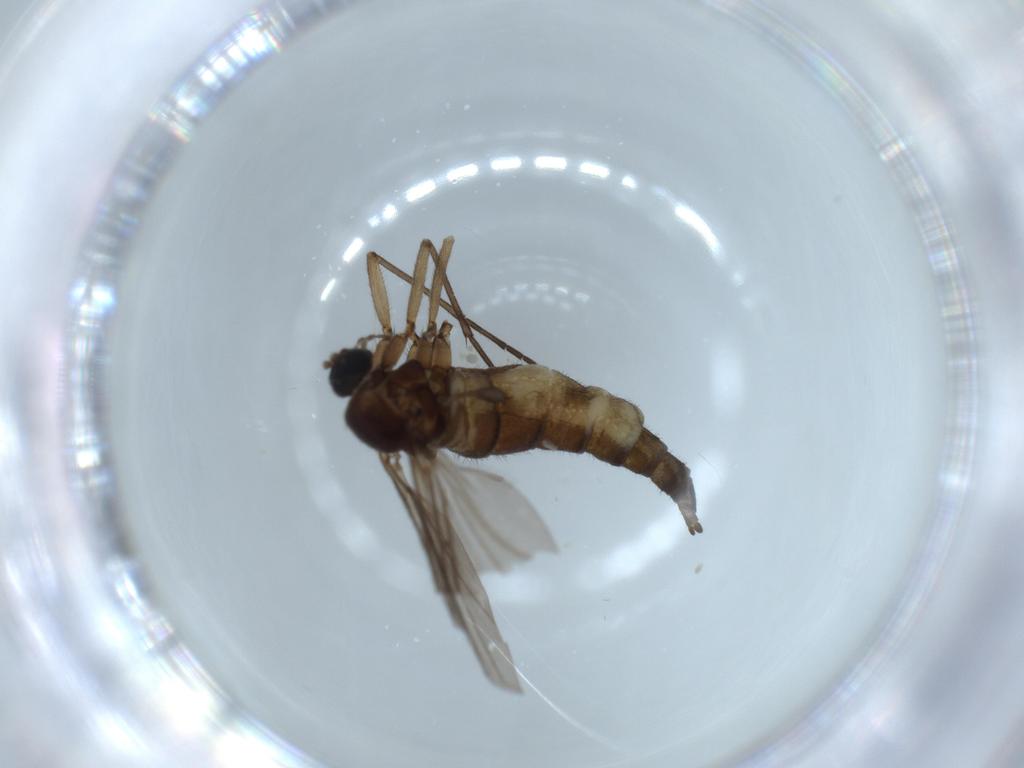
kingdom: Animalia
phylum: Arthropoda
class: Insecta
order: Diptera
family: Sciaridae
